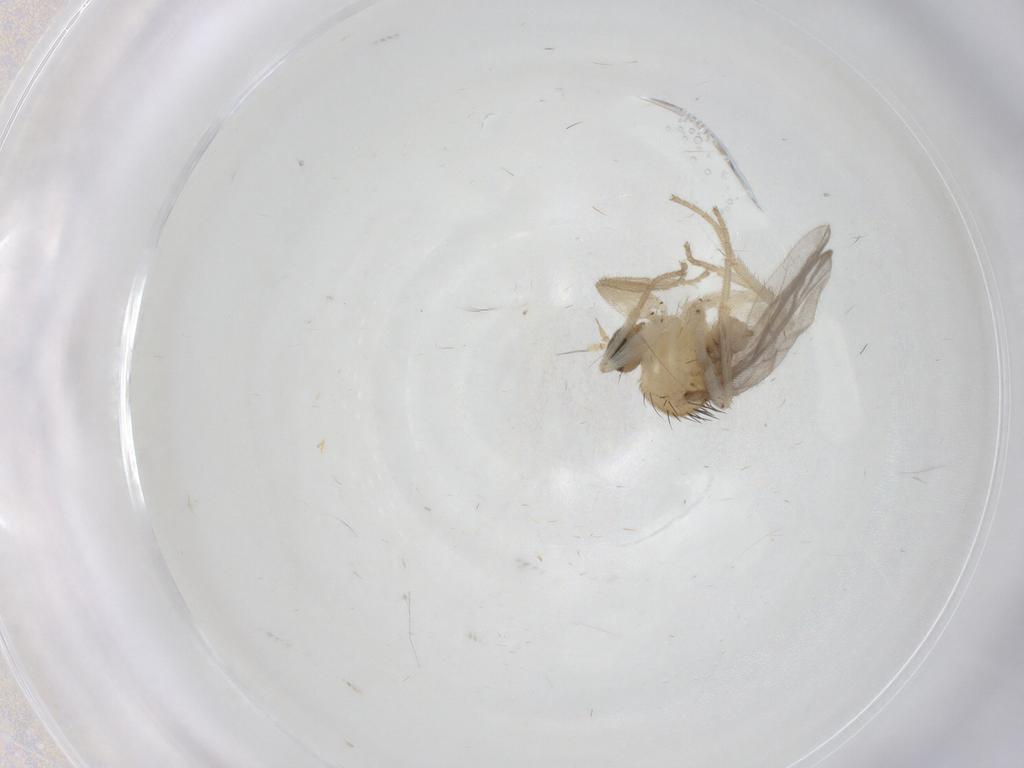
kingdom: Animalia
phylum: Arthropoda
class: Insecta
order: Diptera
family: Hybotidae
